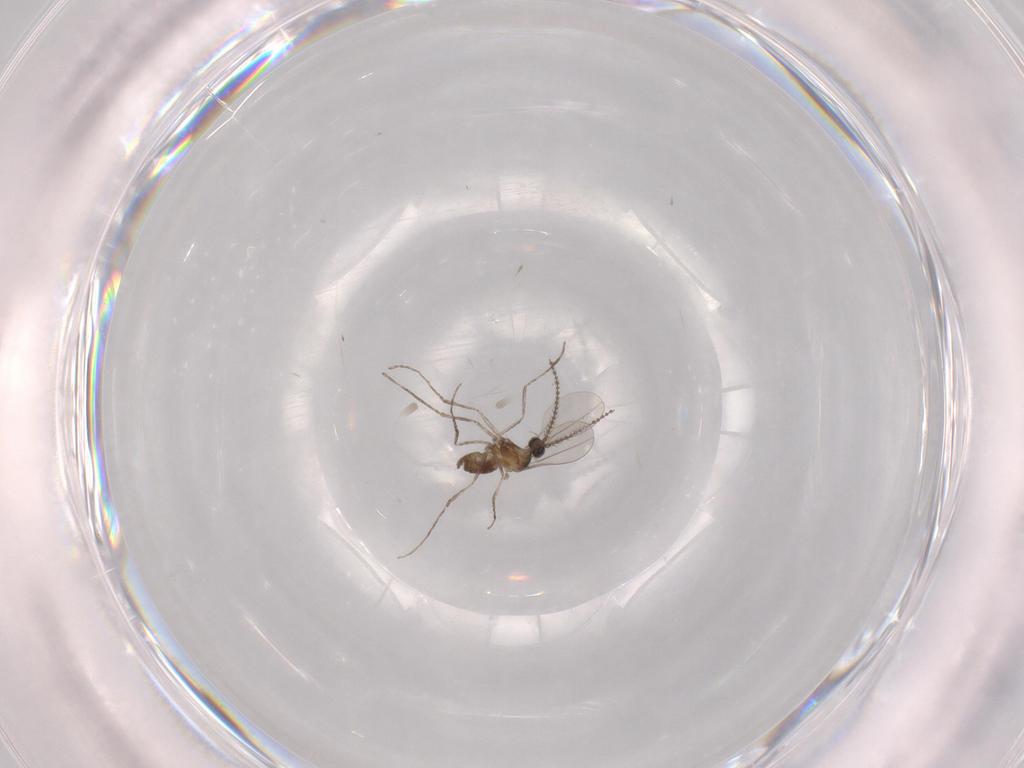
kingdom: Animalia
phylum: Arthropoda
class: Insecta
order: Diptera
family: Cecidomyiidae
